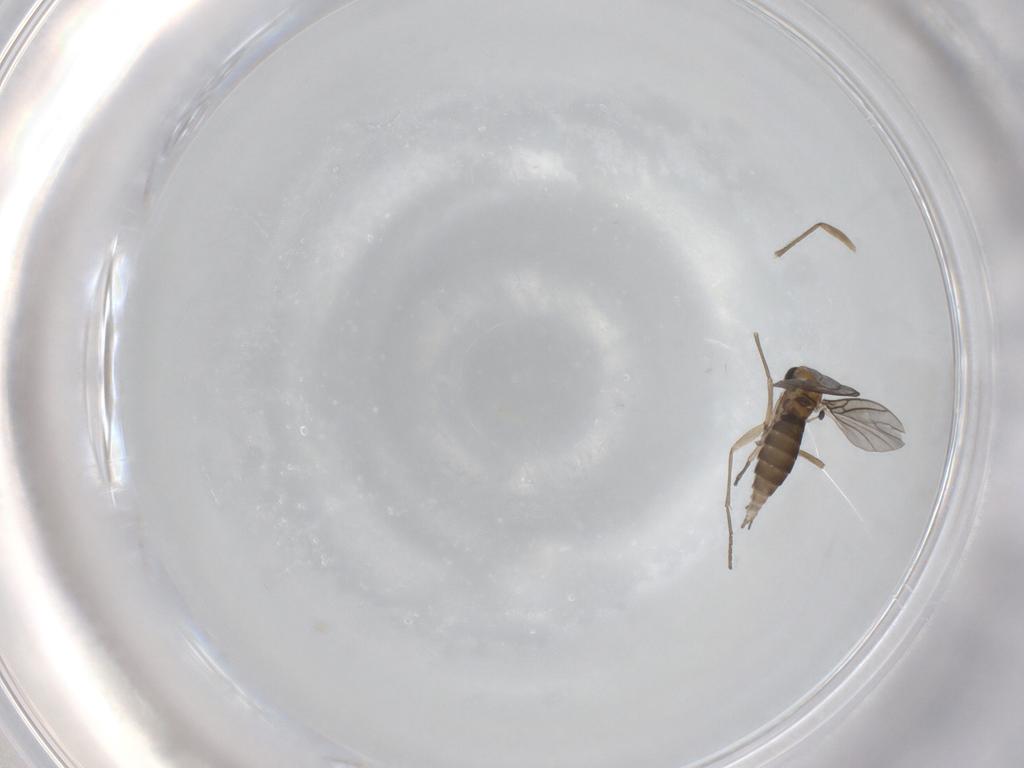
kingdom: Animalia
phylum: Arthropoda
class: Insecta
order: Diptera
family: Sciaridae
